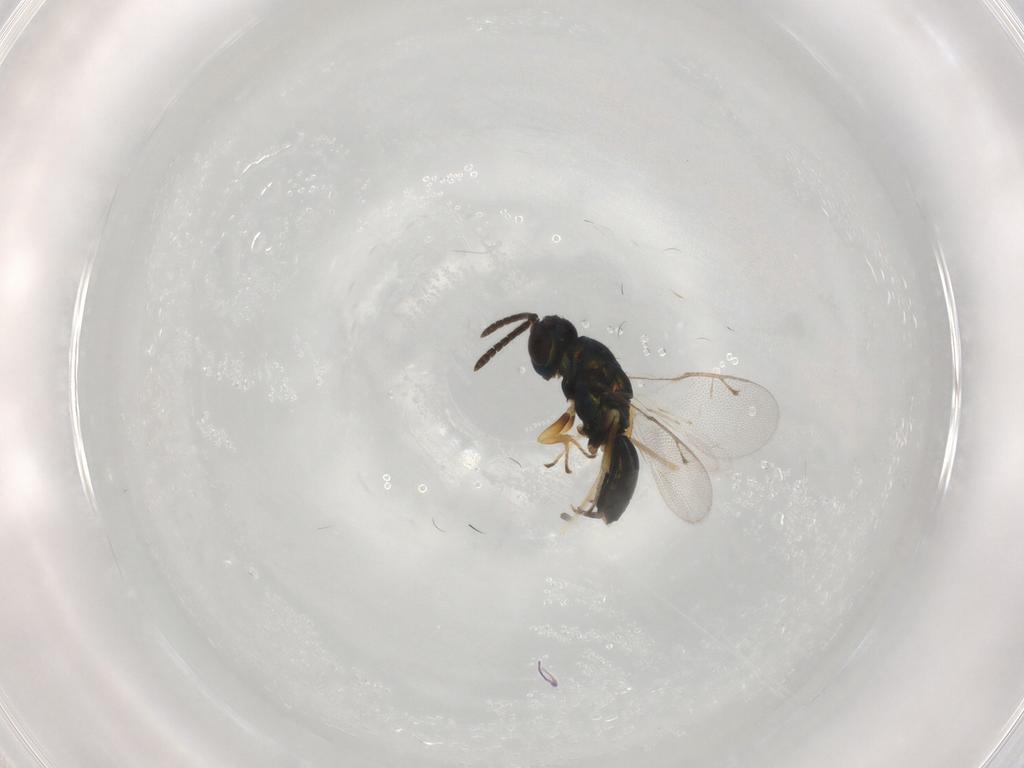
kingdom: Animalia
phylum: Arthropoda
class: Insecta
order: Hymenoptera
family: Pteromalidae
